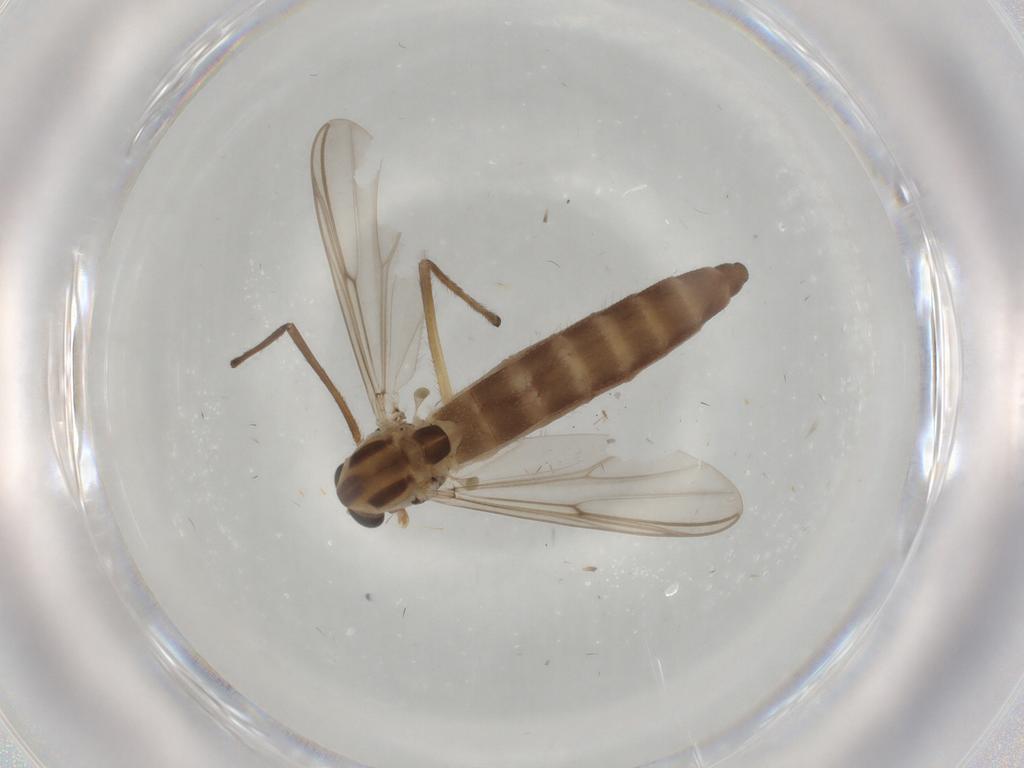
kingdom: Animalia
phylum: Arthropoda
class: Insecta
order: Diptera
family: Chironomidae
